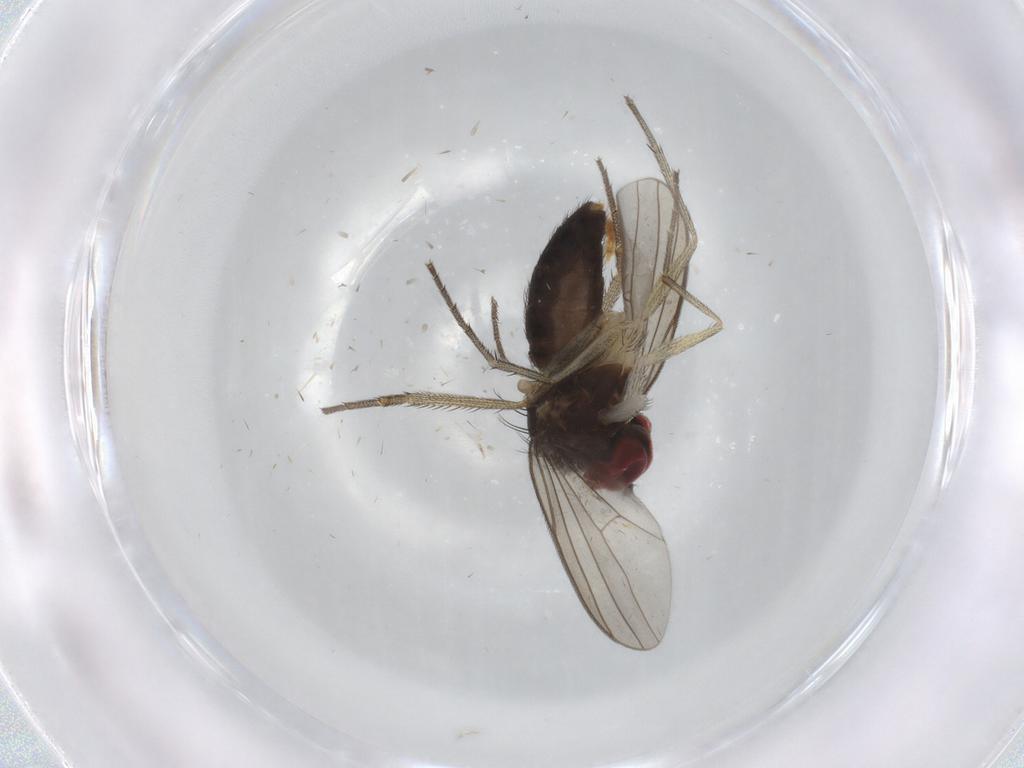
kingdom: Animalia
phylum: Arthropoda
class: Insecta
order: Diptera
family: Dolichopodidae
